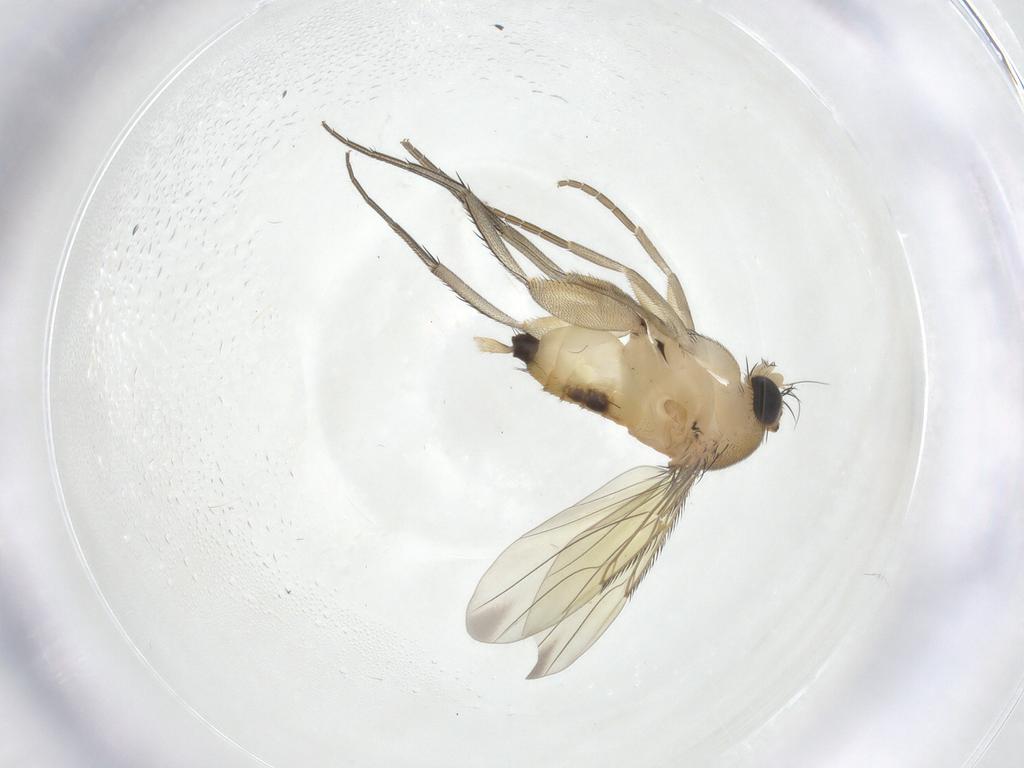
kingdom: Animalia
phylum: Arthropoda
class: Insecta
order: Diptera
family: Phoridae
